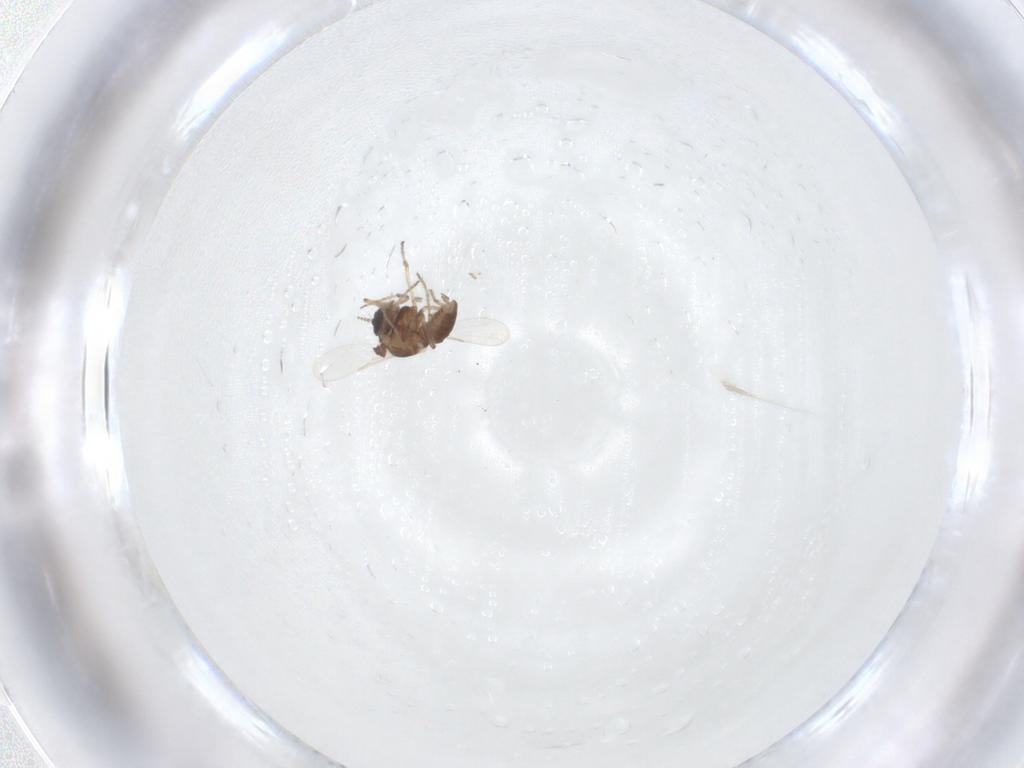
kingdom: Animalia
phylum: Arthropoda
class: Insecta
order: Diptera
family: Ceratopogonidae
